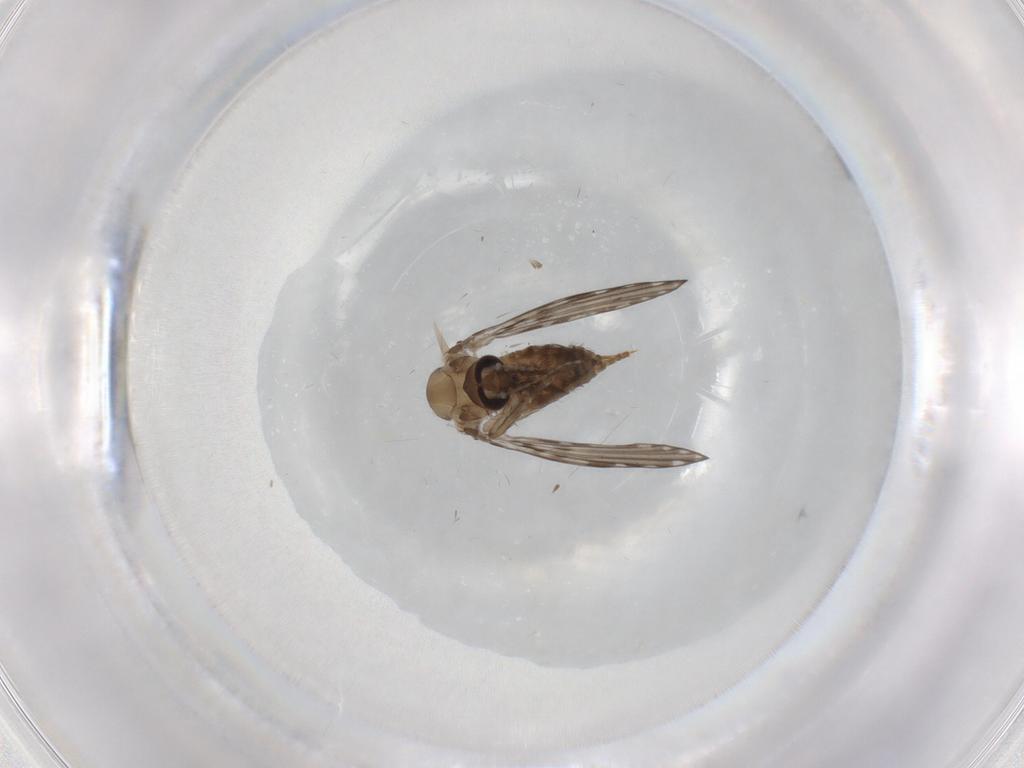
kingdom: Animalia
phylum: Arthropoda
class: Insecta
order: Diptera
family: Psychodidae
